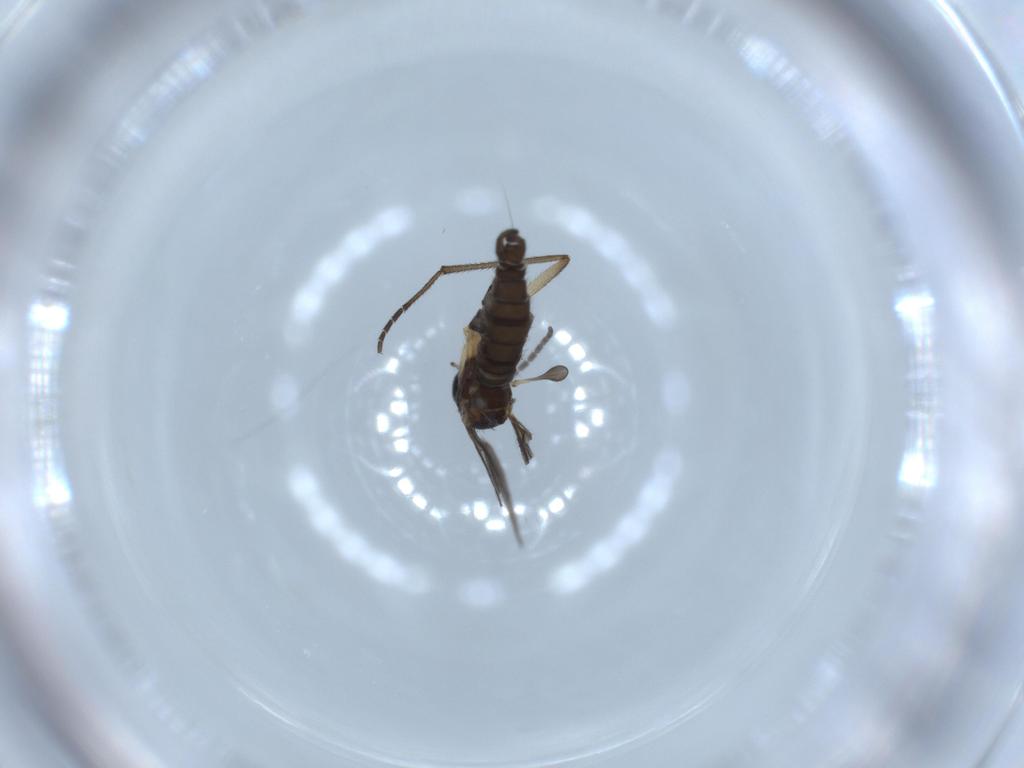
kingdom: Animalia
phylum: Arthropoda
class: Insecta
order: Diptera
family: Sciaridae
